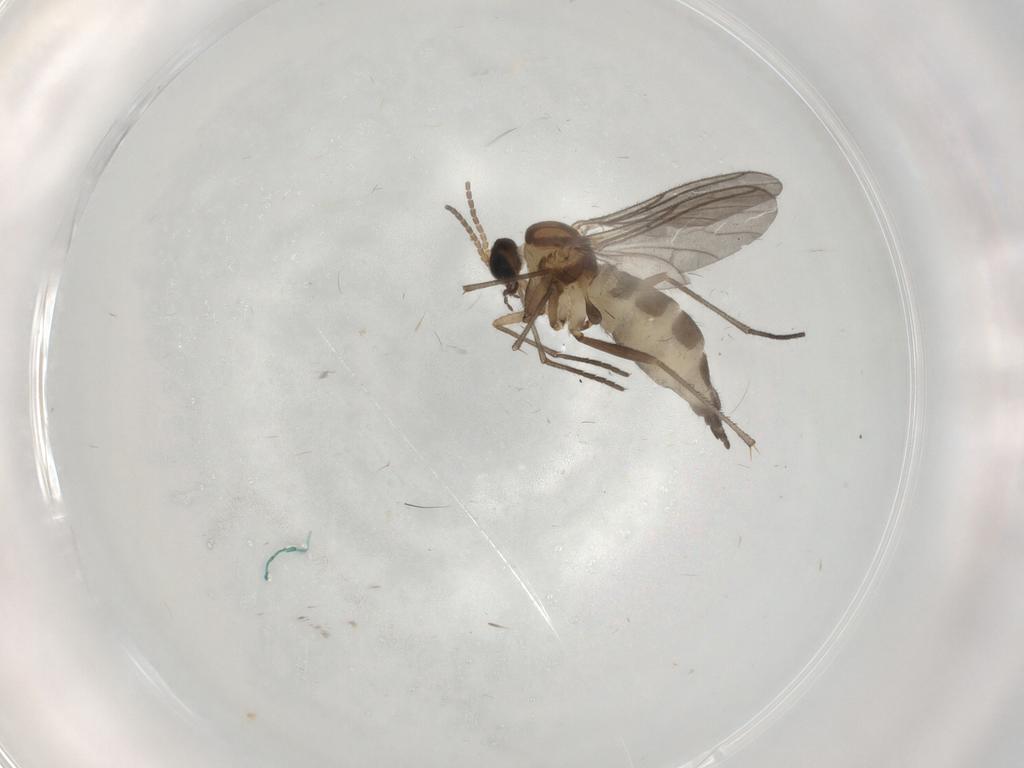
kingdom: Animalia
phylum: Arthropoda
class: Insecta
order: Diptera
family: Sciaridae
